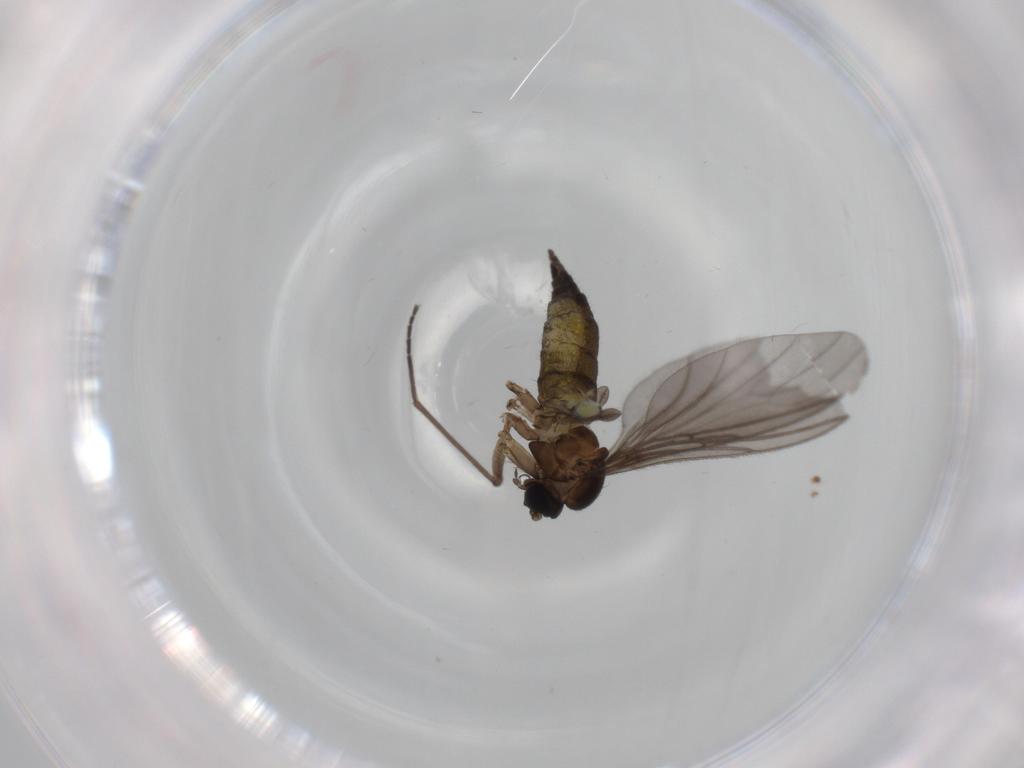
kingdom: Animalia
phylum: Arthropoda
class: Insecta
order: Diptera
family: Sciaridae
